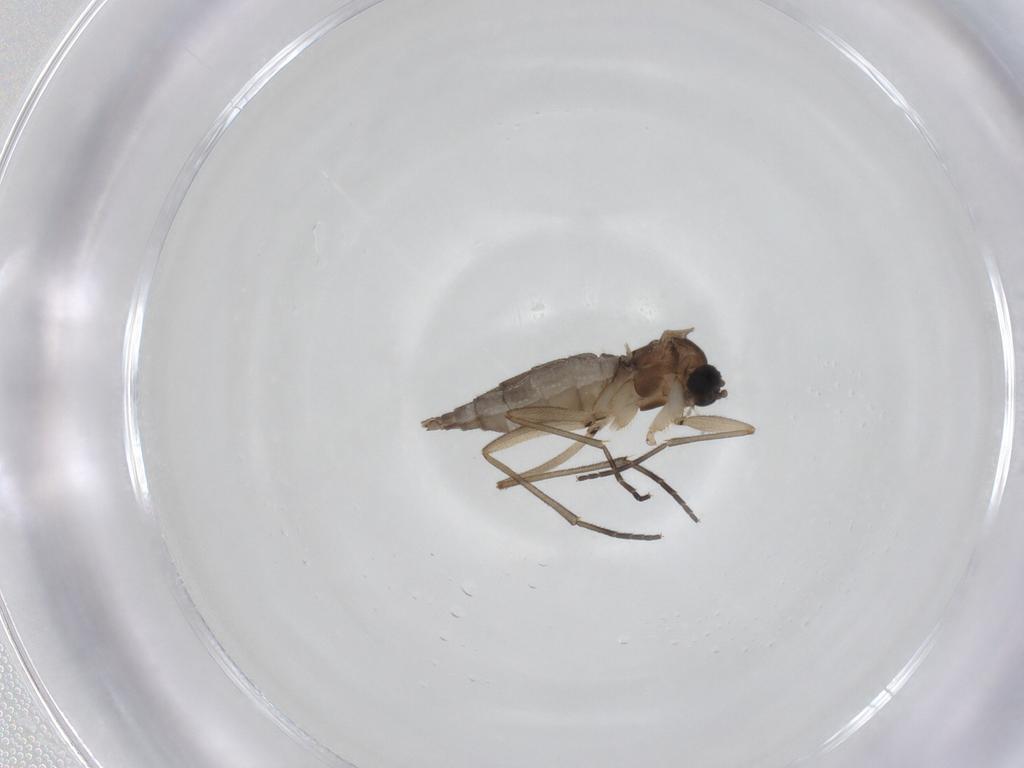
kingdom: Animalia
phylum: Arthropoda
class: Insecta
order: Diptera
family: Sciaridae
